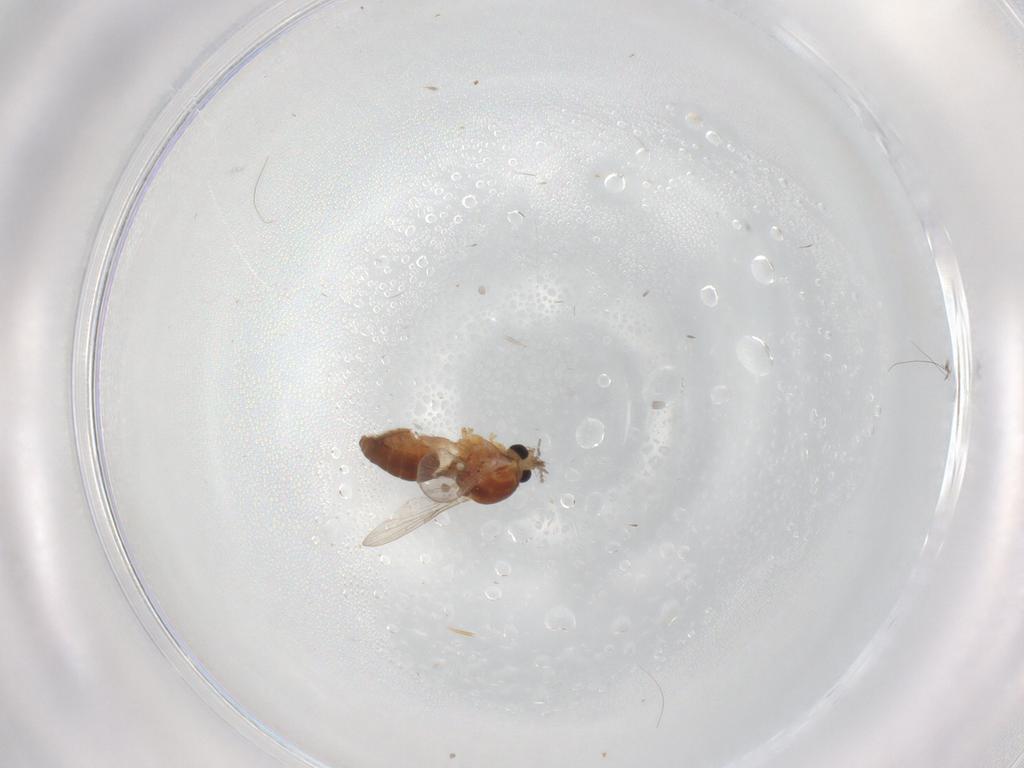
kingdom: Animalia
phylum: Arthropoda
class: Insecta
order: Diptera
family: Ceratopogonidae
